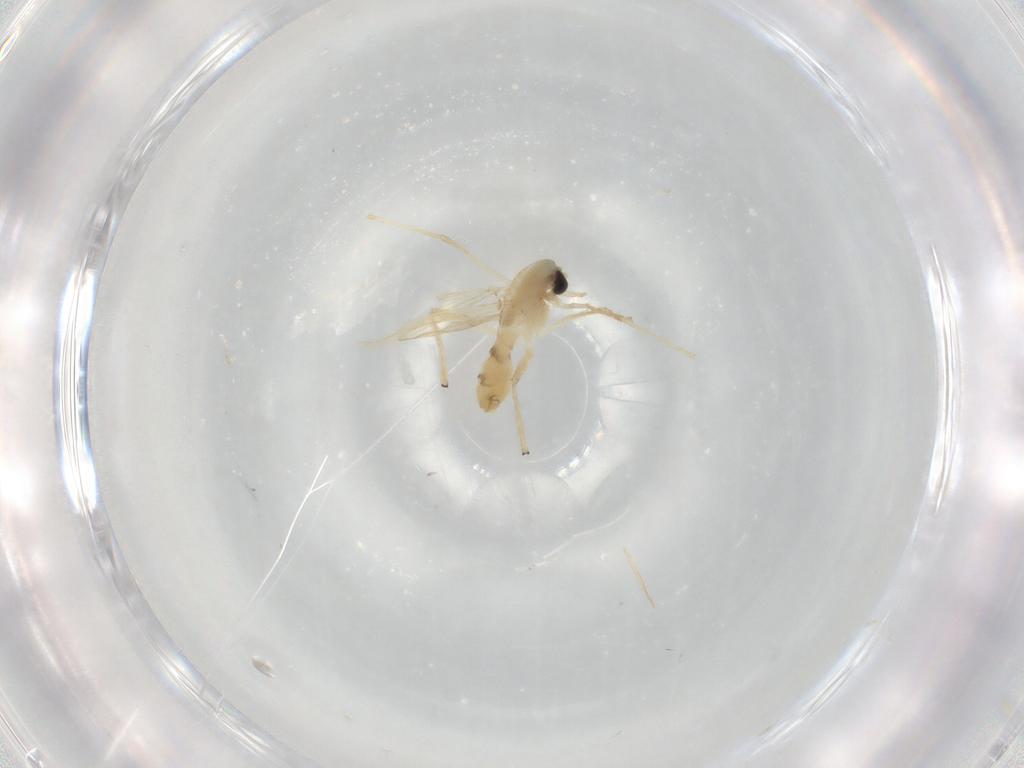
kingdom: Animalia
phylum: Arthropoda
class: Insecta
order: Diptera
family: Chironomidae
